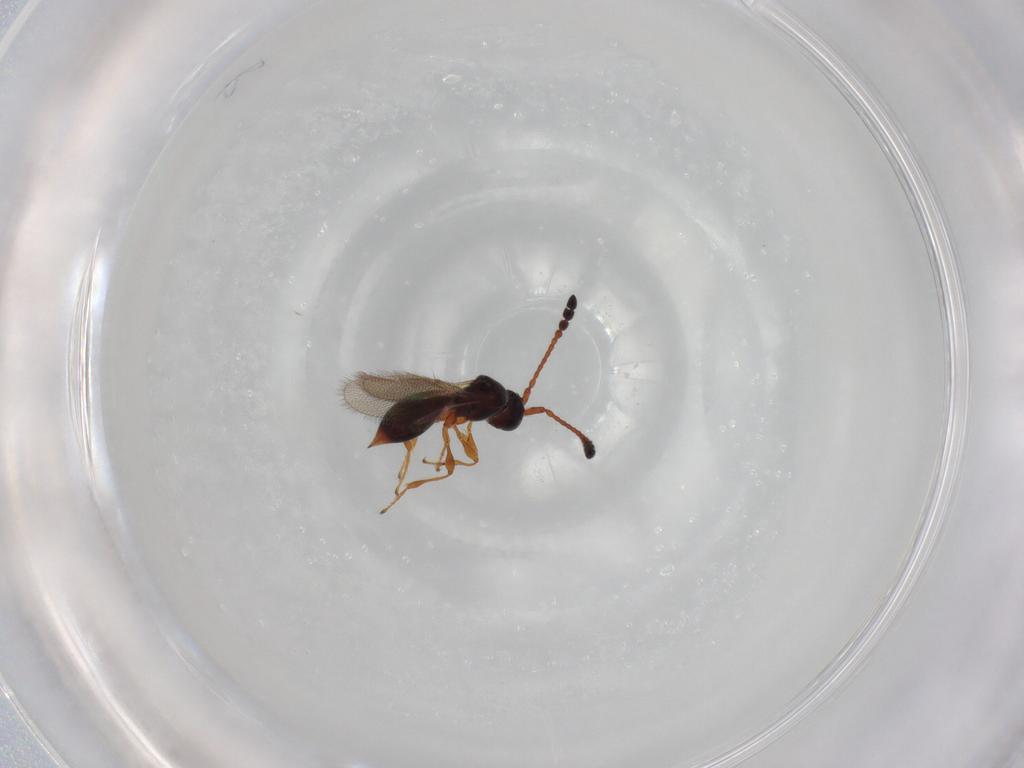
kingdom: Animalia
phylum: Arthropoda
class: Insecta
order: Hymenoptera
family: Diapriidae
